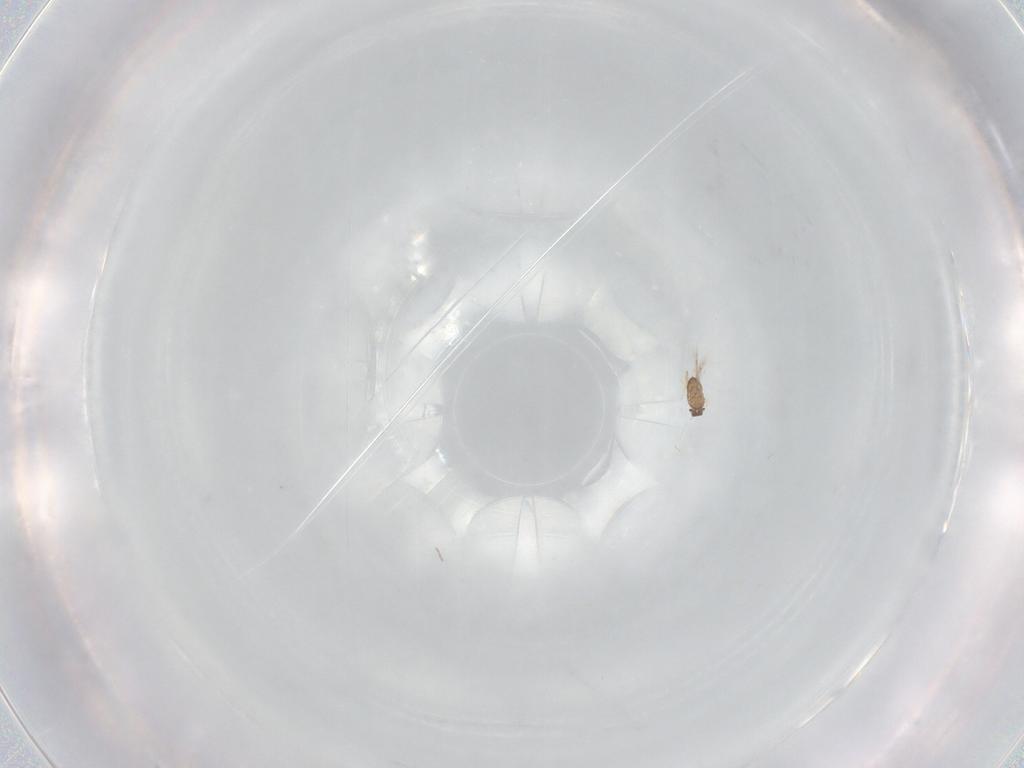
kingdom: Animalia
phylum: Arthropoda
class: Insecta
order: Hymenoptera
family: Mymaridae
